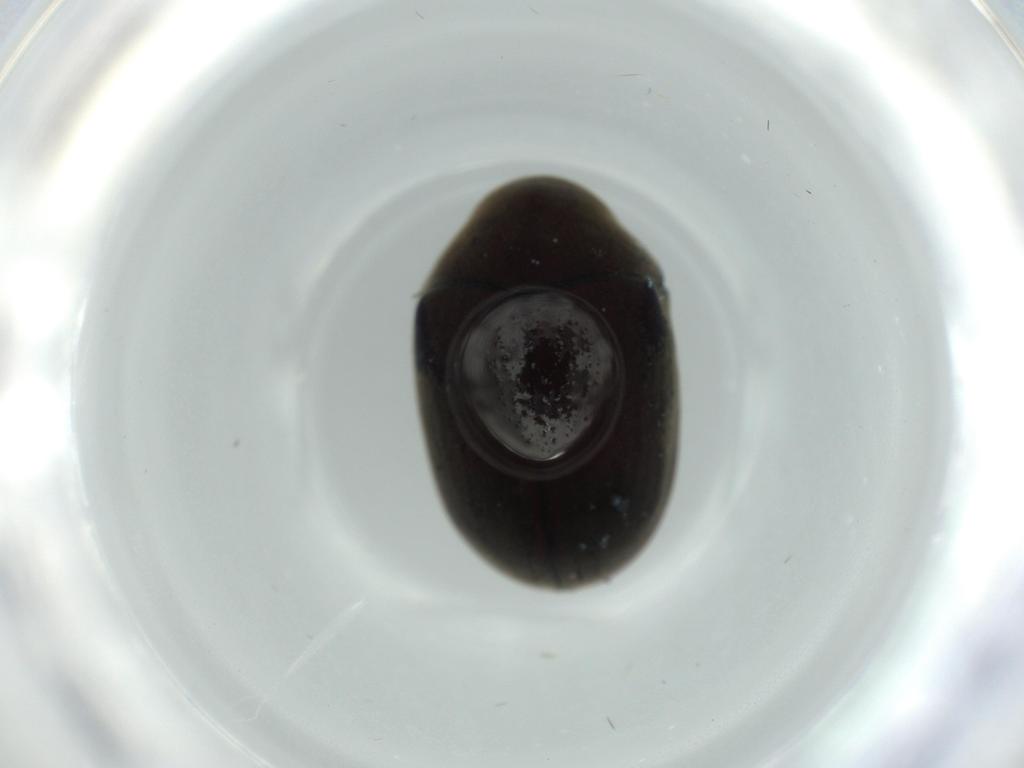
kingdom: Animalia
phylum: Arthropoda
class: Insecta
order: Coleoptera
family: Ptinidae
